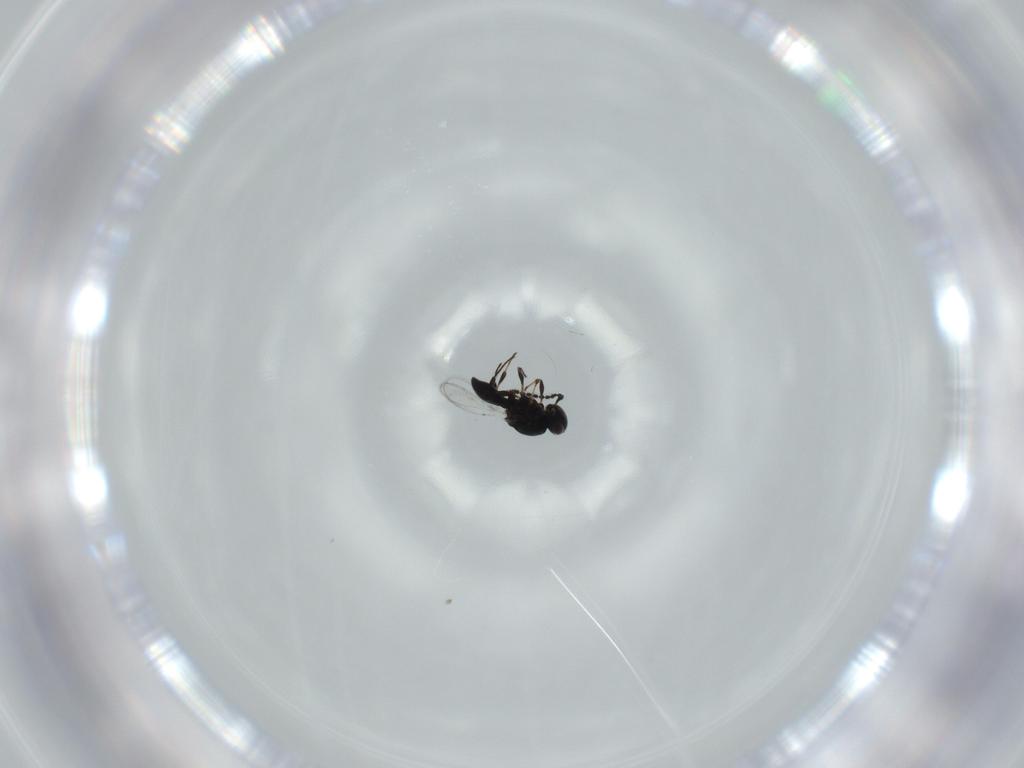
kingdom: Animalia
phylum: Arthropoda
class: Insecta
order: Hymenoptera
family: Platygastridae
